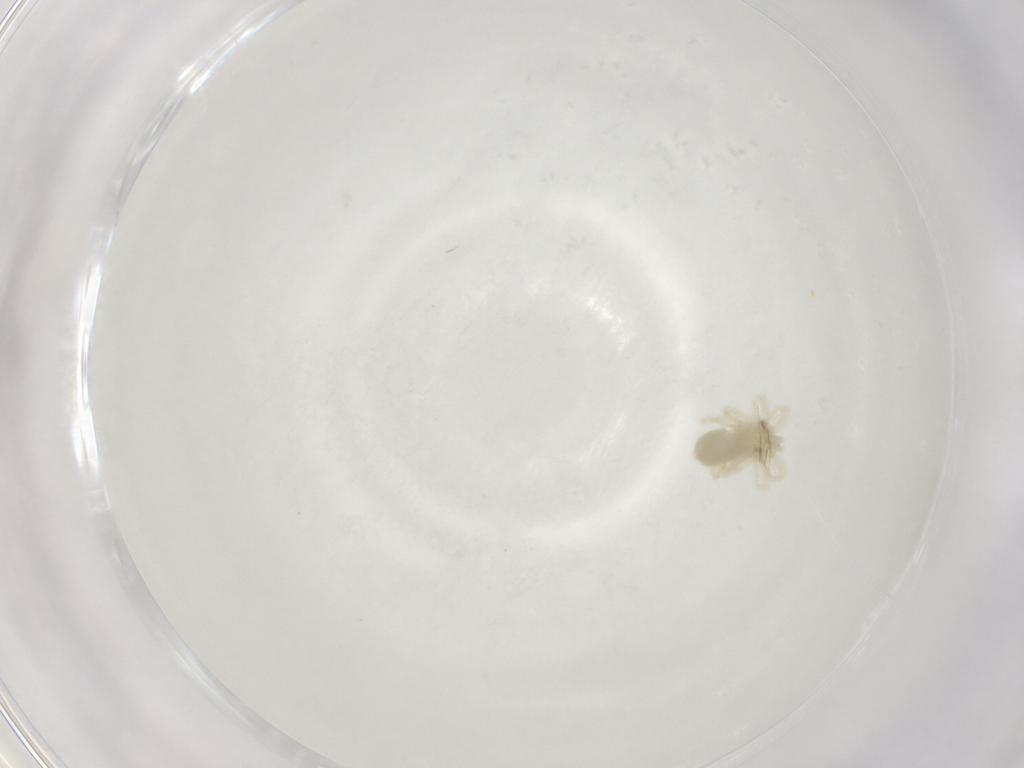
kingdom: Animalia
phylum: Arthropoda
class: Arachnida
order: Trombidiformes
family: Anystidae
